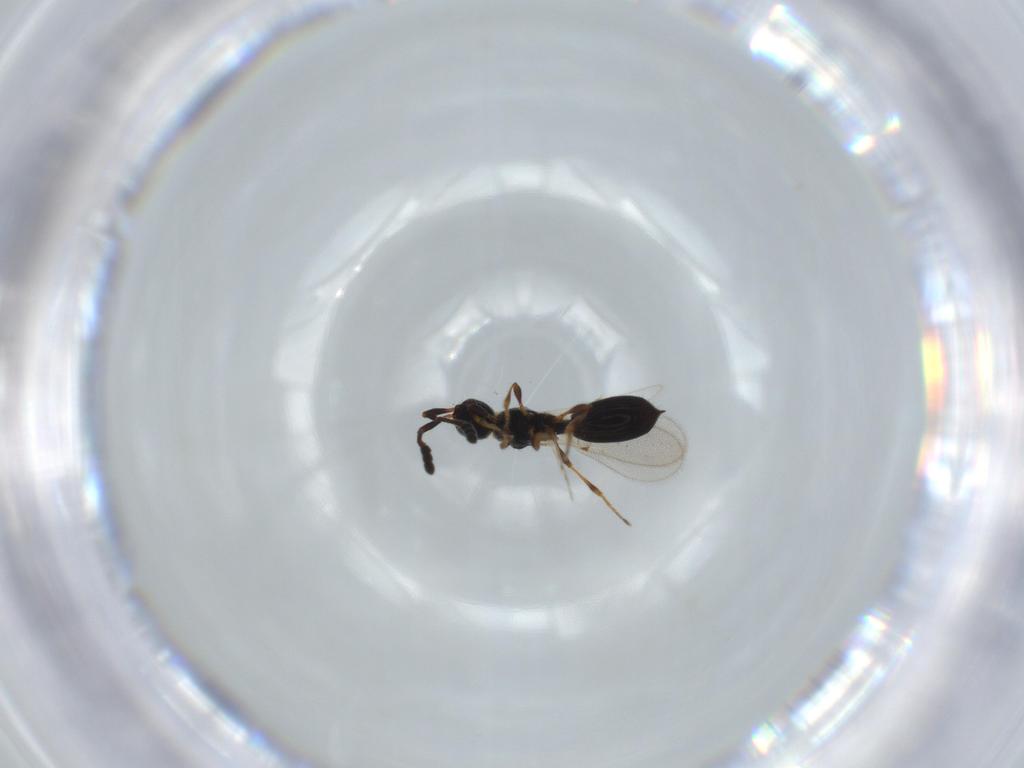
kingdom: Animalia
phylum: Arthropoda
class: Insecta
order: Hymenoptera
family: Diapriidae
